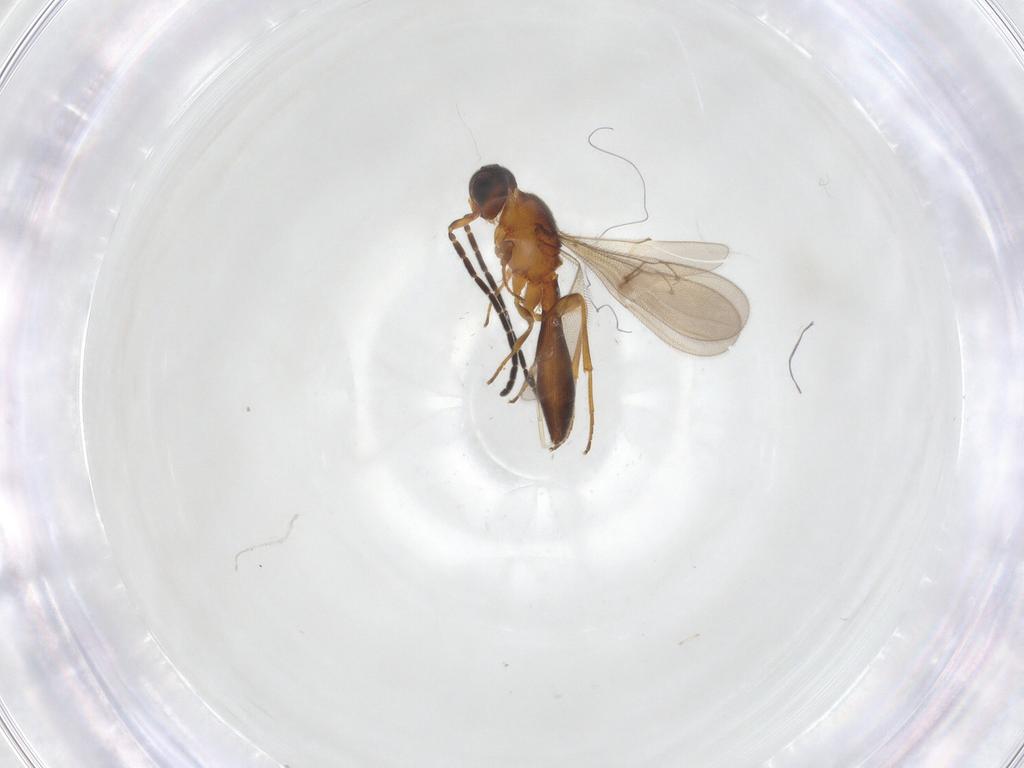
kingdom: Animalia
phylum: Arthropoda
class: Insecta
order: Hymenoptera
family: Scelionidae
